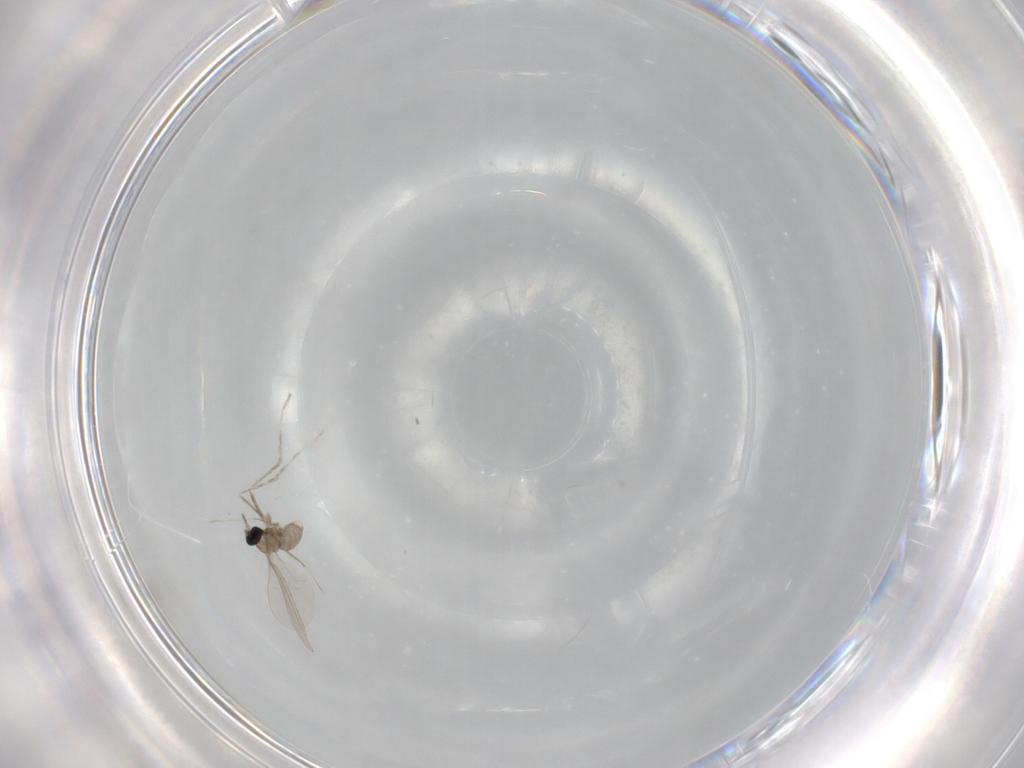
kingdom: Animalia
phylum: Arthropoda
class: Insecta
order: Diptera
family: Cecidomyiidae
